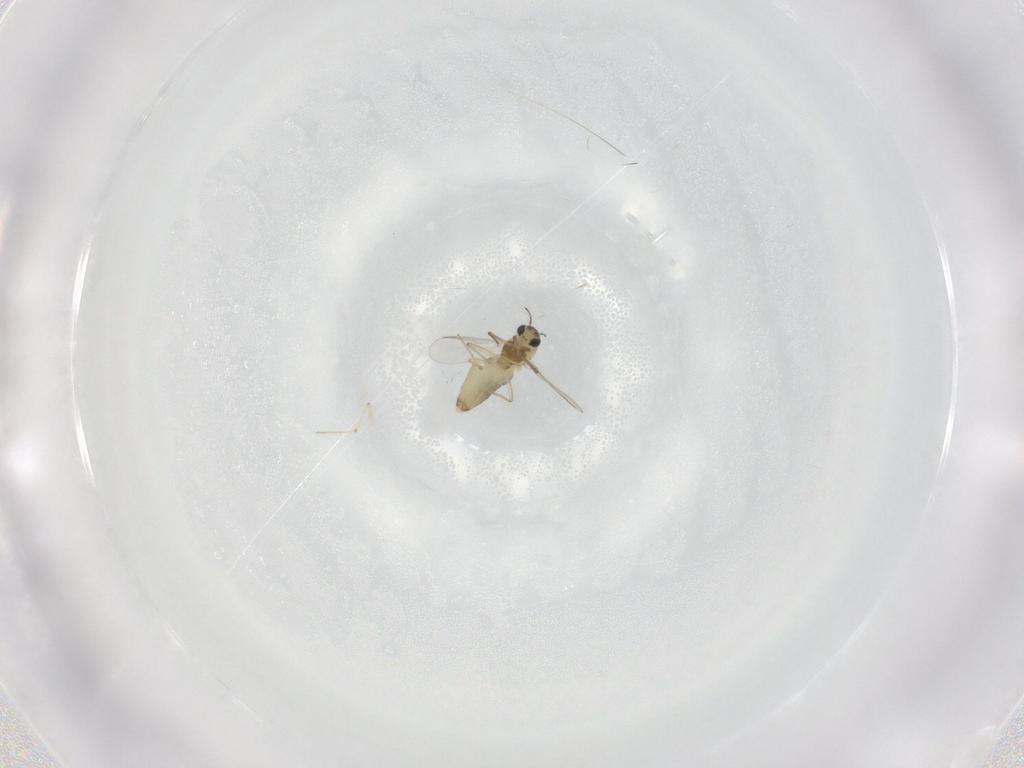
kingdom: Animalia
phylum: Arthropoda
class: Insecta
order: Diptera
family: Chironomidae
